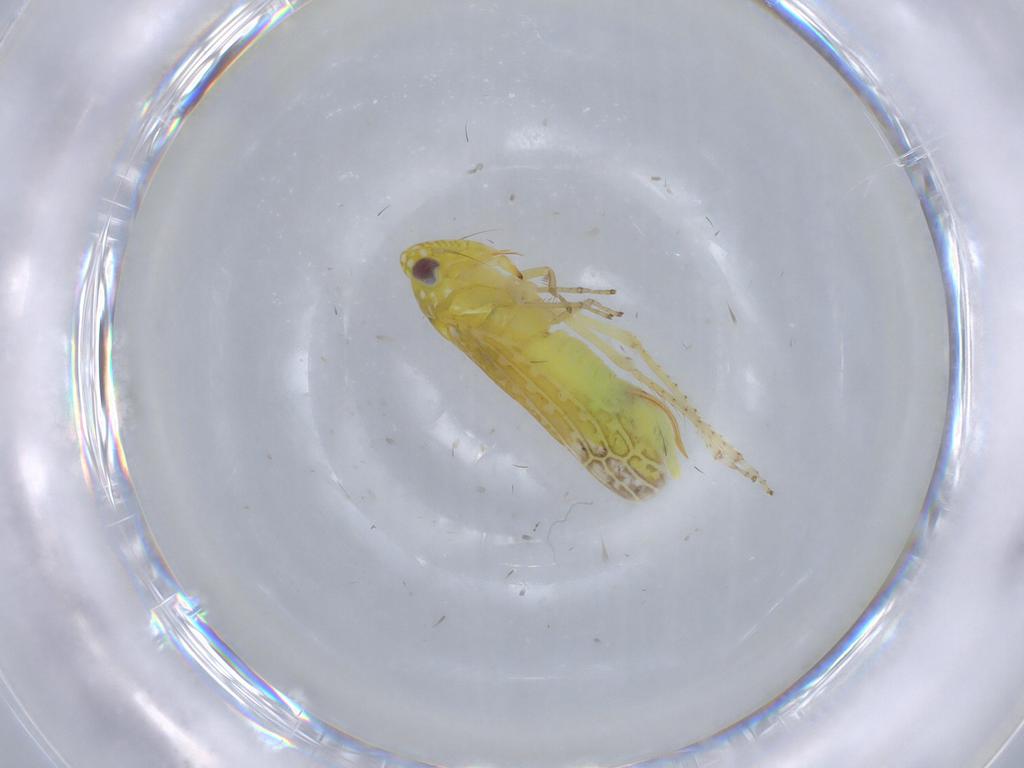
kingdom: Animalia
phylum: Arthropoda
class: Insecta
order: Hemiptera
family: Cicadellidae
